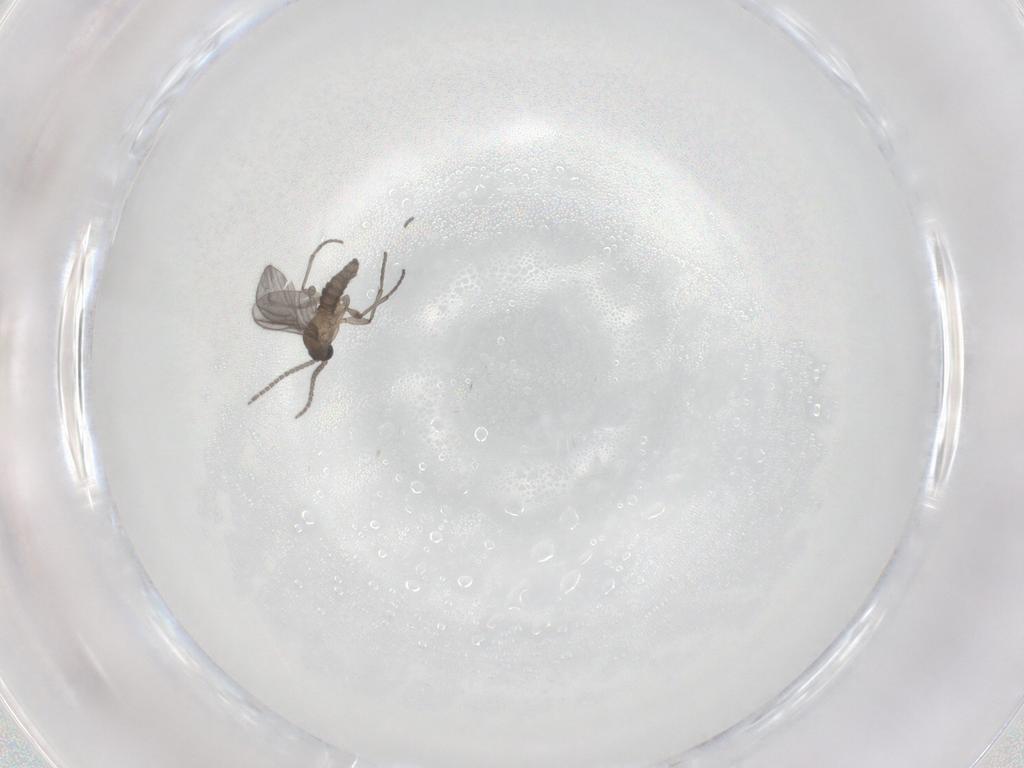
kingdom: Animalia
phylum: Arthropoda
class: Insecta
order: Diptera
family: Sciaridae
